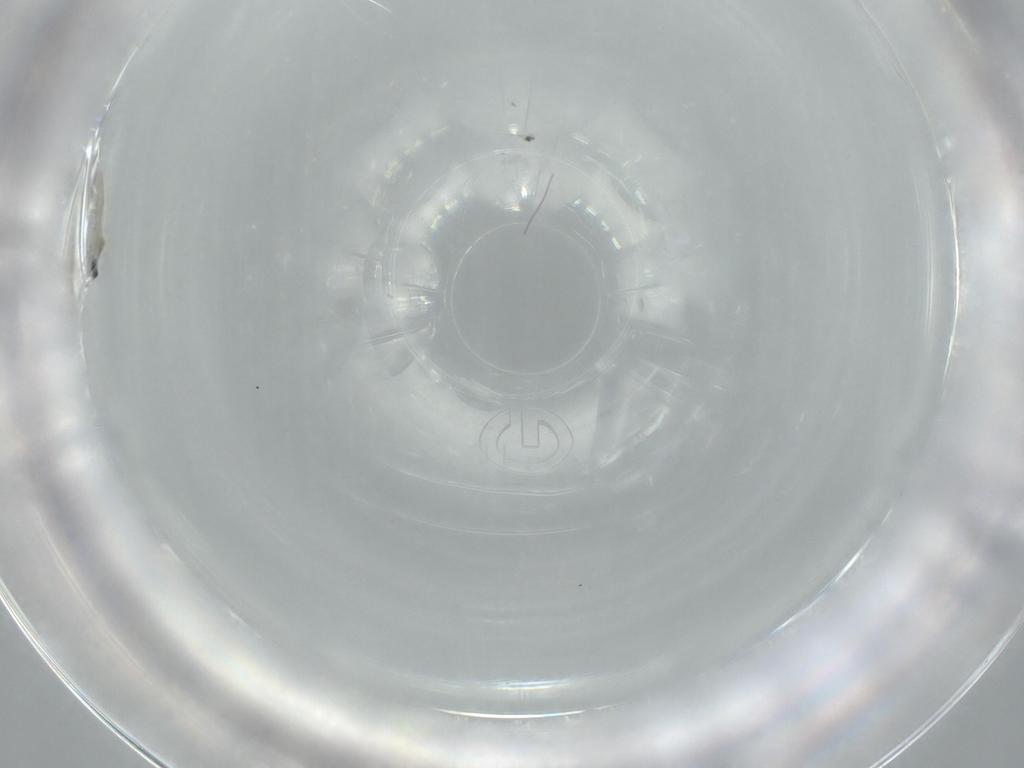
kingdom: Animalia
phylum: Arthropoda
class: Insecta
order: Diptera
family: Cecidomyiidae
